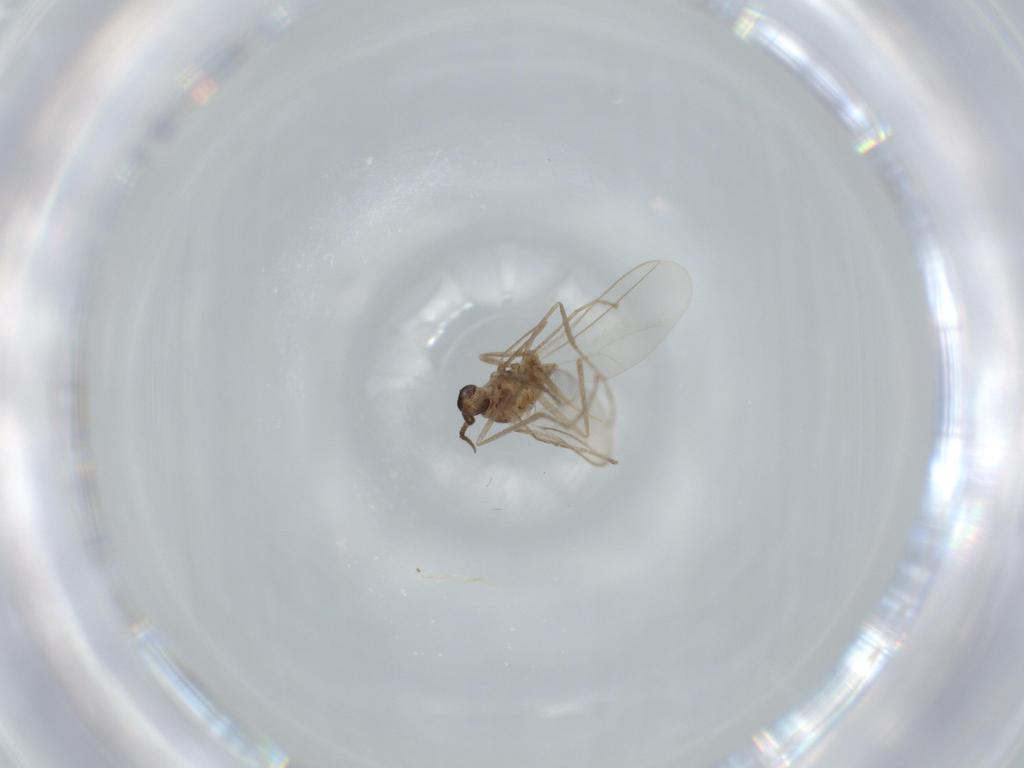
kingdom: Animalia
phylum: Arthropoda
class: Insecta
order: Diptera
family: Cecidomyiidae
